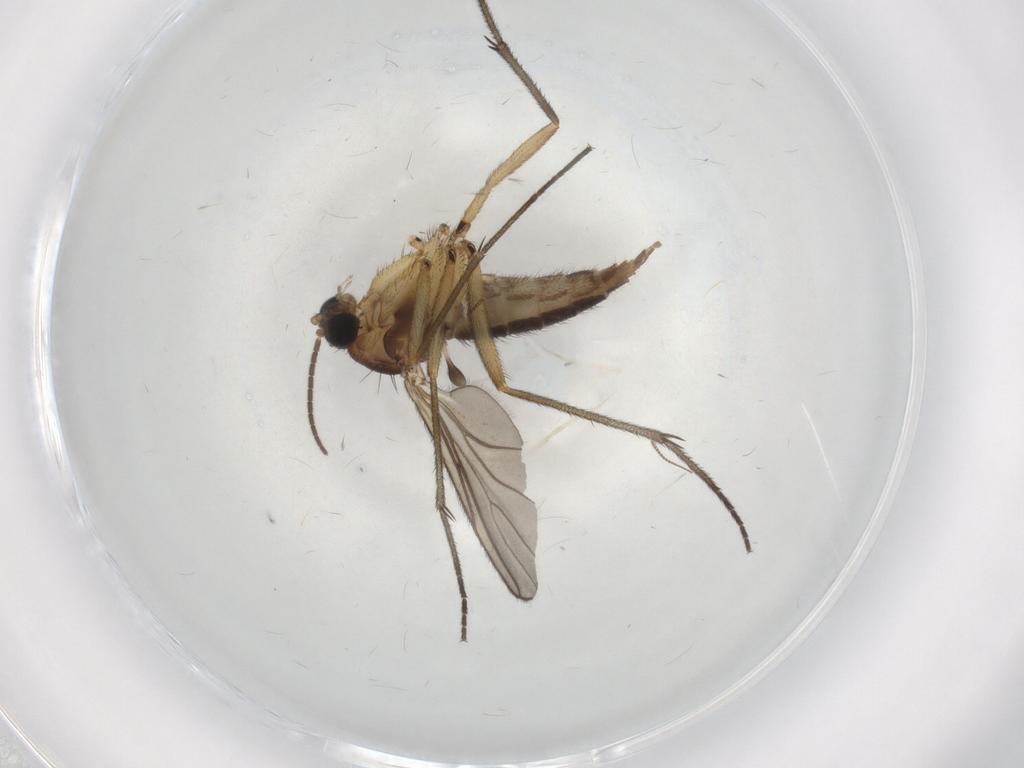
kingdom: Animalia
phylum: Arthropoda
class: Insecta
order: Diptera
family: Sciaridae
